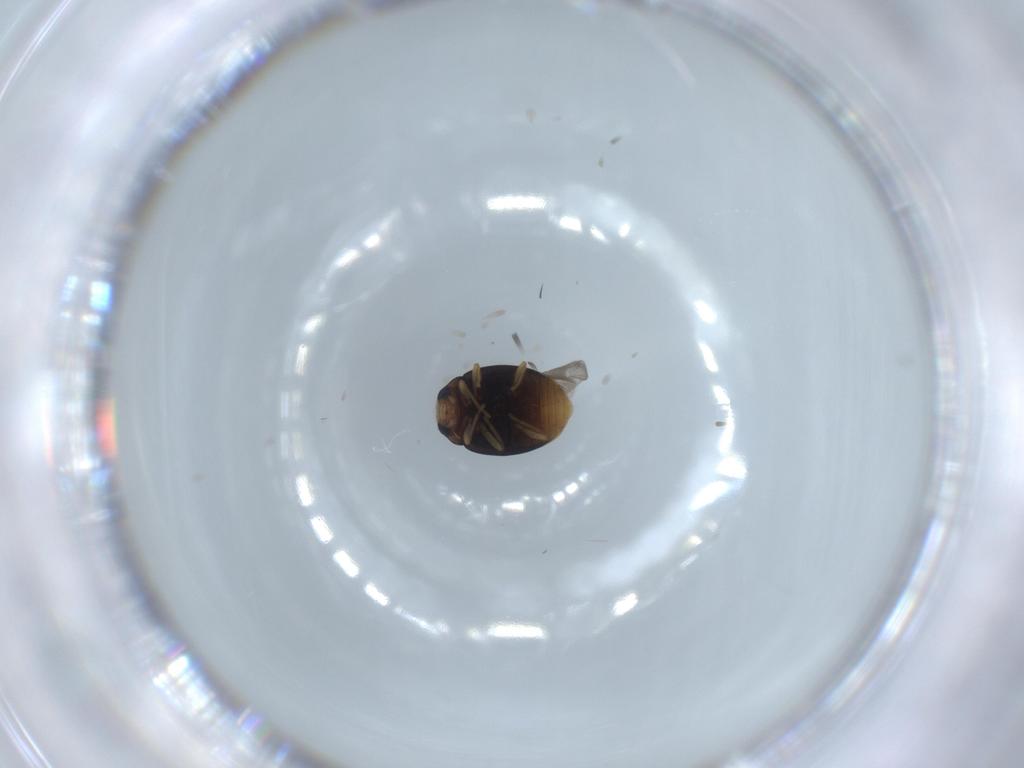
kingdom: Animalia
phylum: Arthropoda
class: Insecta
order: Coleoptera
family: Coccinellidae
